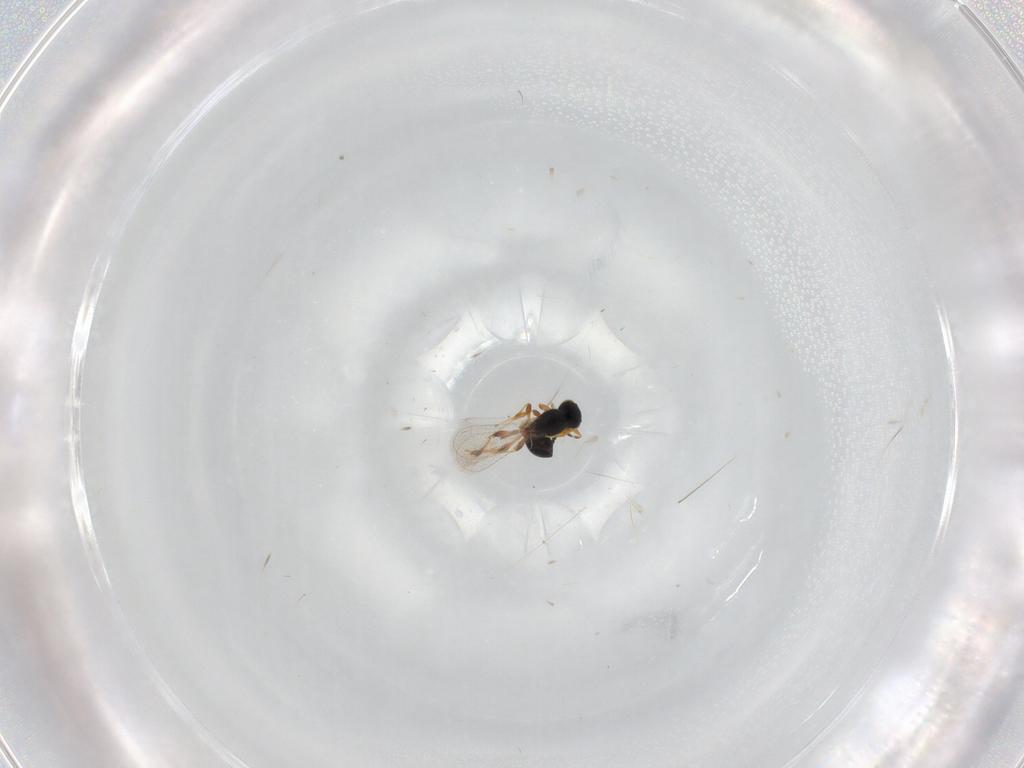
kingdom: Animalia
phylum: Arthropoda
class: Insecta
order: Hymenoptera
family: Platygastridae
